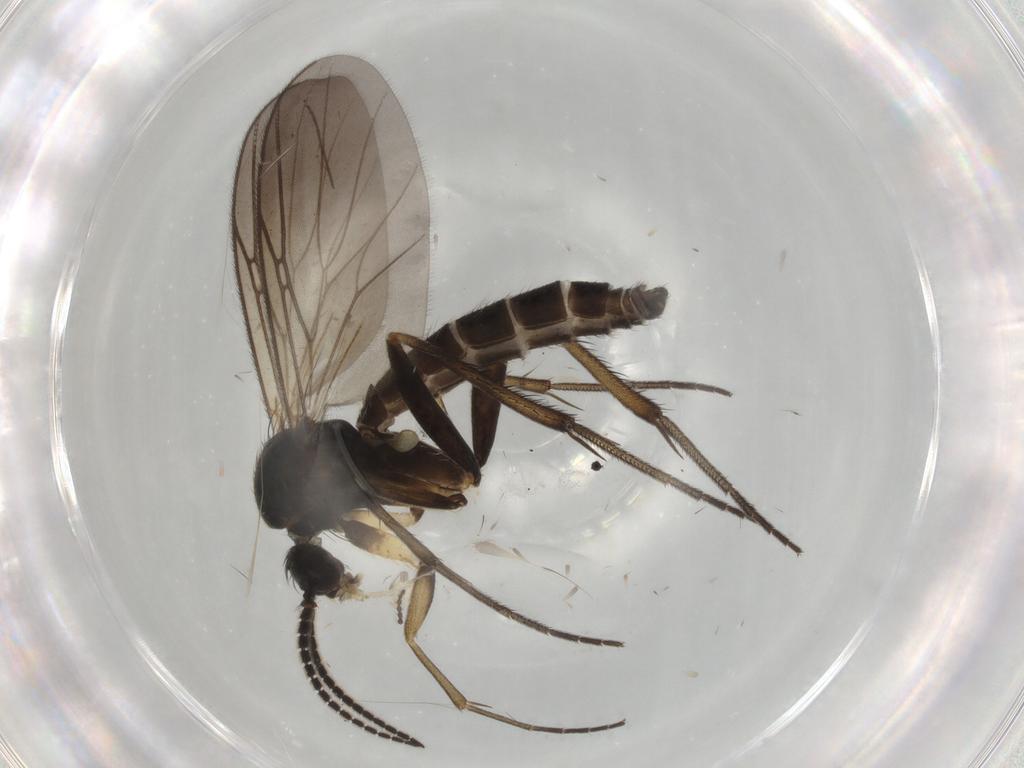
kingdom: Animalia
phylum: Arthropoda
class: Insecta
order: Diptera
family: Mycetophilidae
